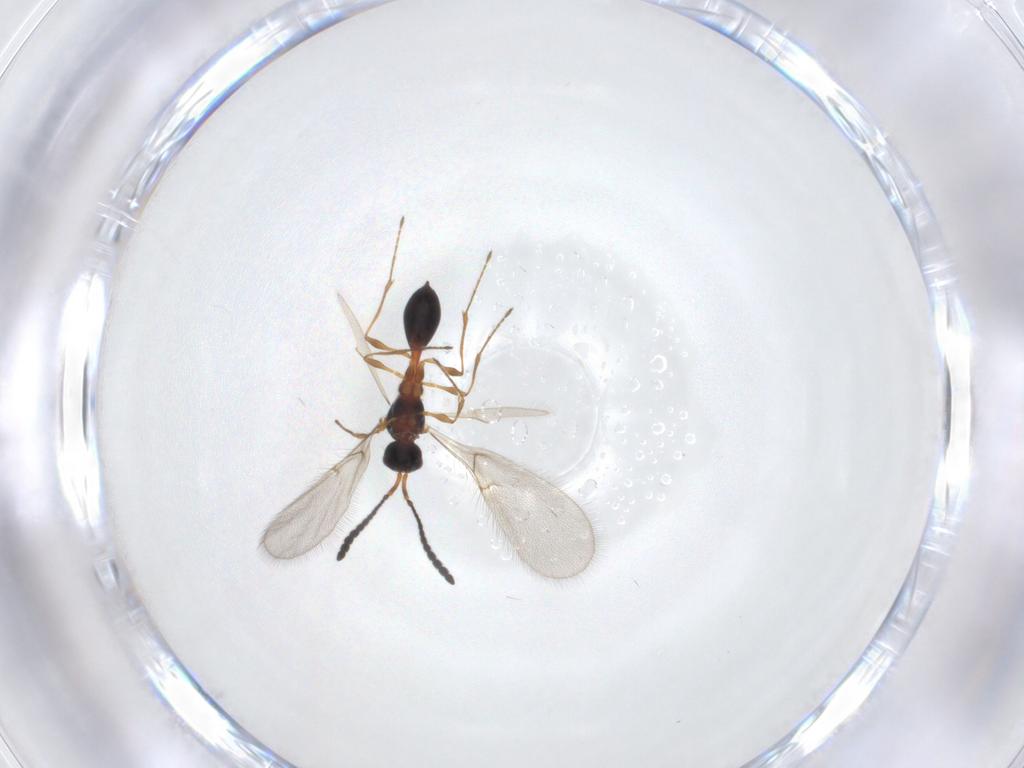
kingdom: Animalia
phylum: Arthropoda
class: Insecta
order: Hymenoptera
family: Diapriidae
